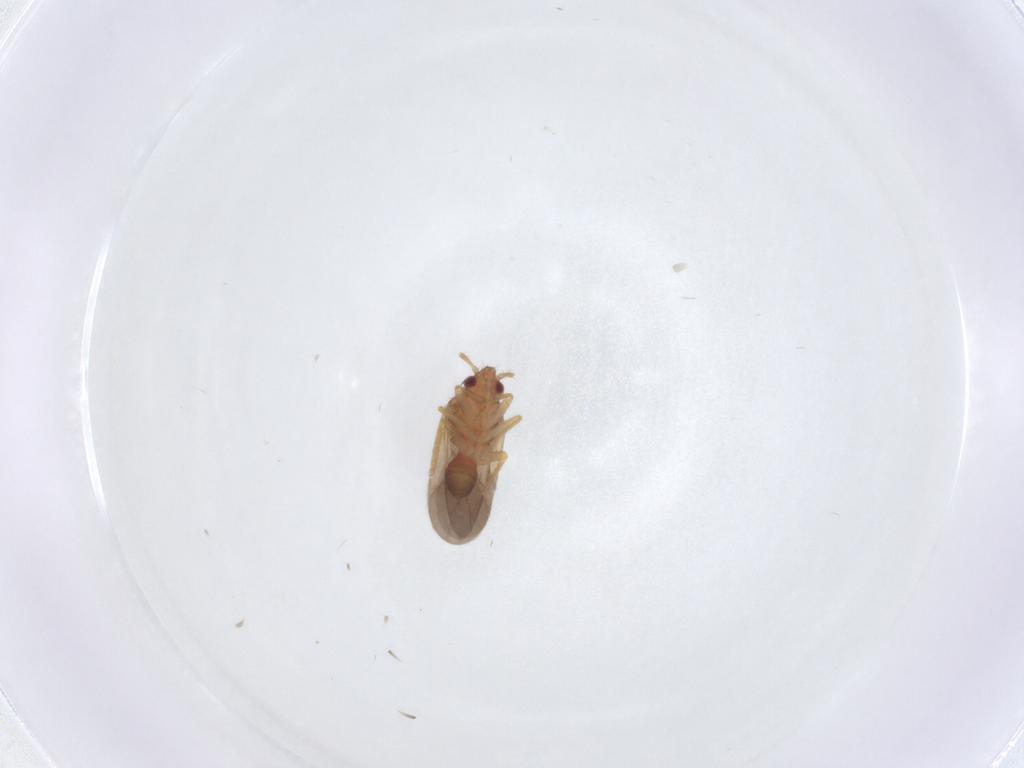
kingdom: Animalia
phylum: Arthropoda
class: Insecta
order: Hemiptera
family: Ceratocombidae
